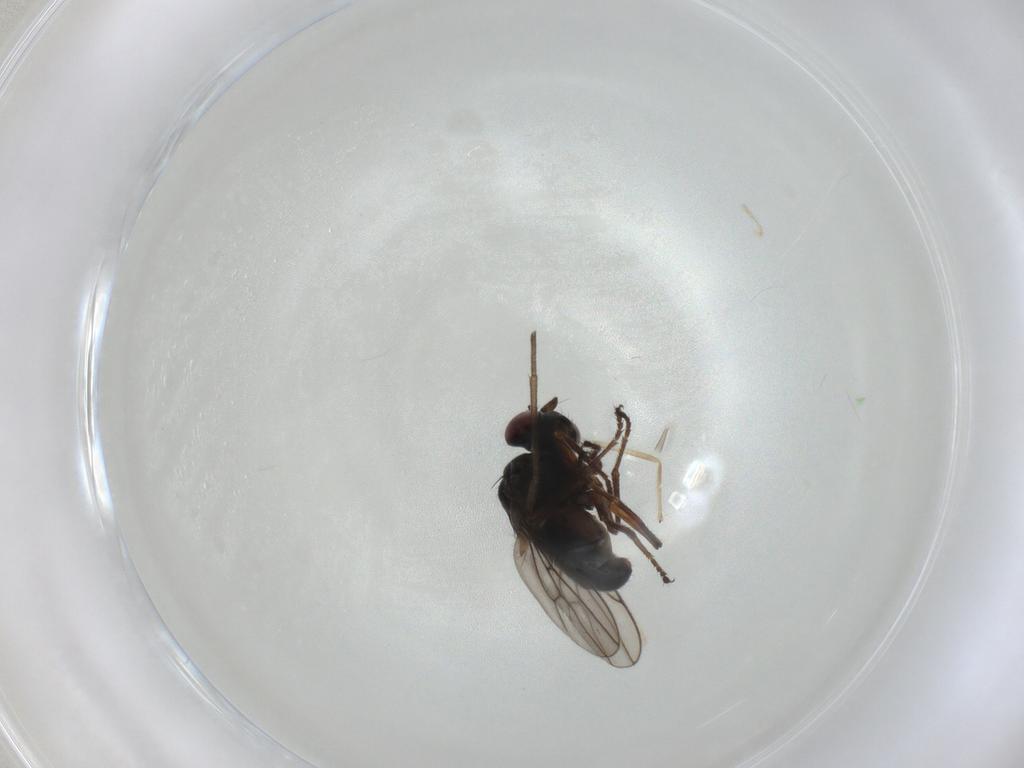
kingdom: Animalia
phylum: Arthropoda
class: Insecta
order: Diptera
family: Ephydridae
